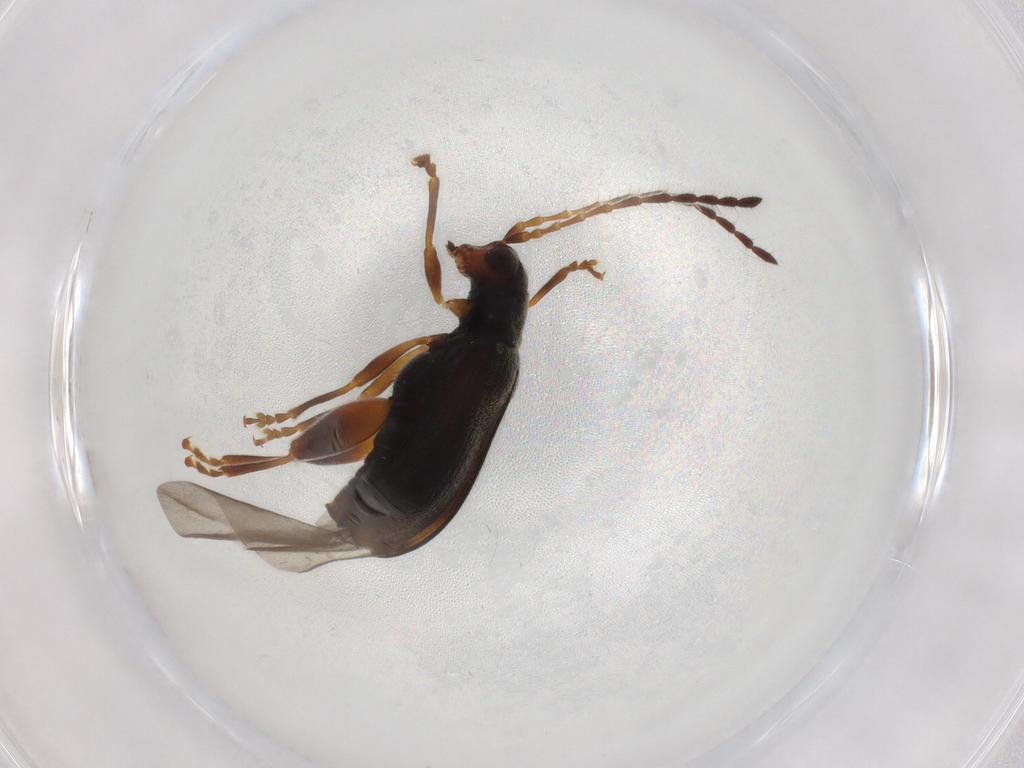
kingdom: Animalia
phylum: Arthropoda
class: Insecta
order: Coleoptera
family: Chrysomelidae
